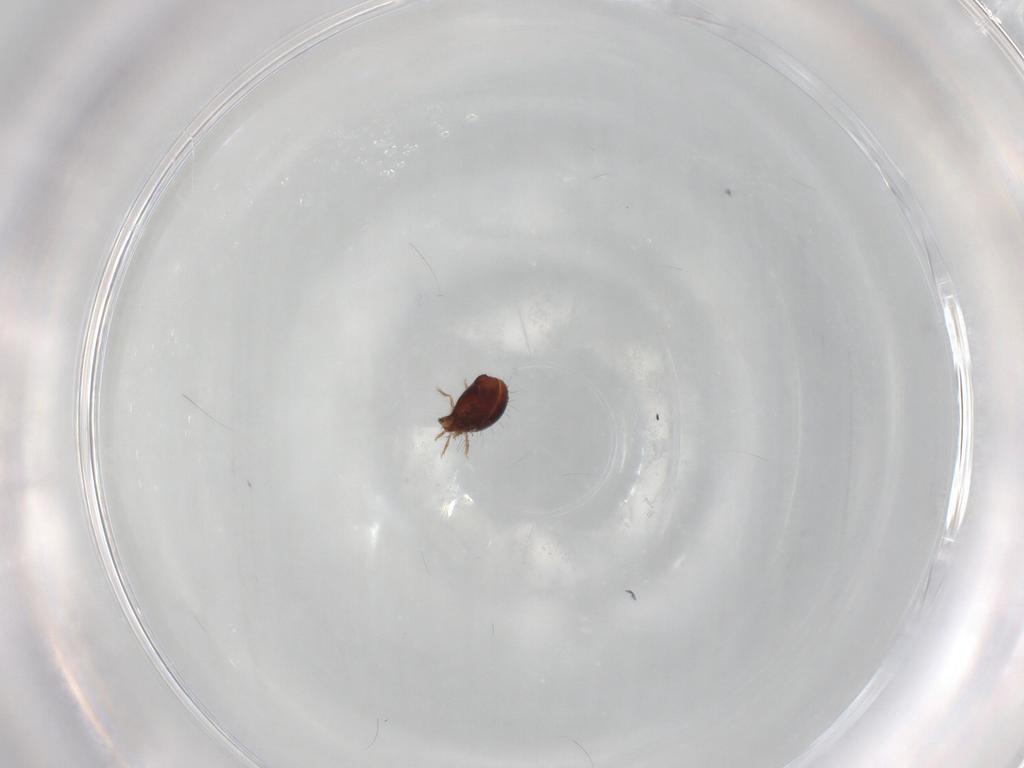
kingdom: Animalia
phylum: Arthropoda
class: Arachnida
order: Sarcoptiformes
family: Humerobatidae
